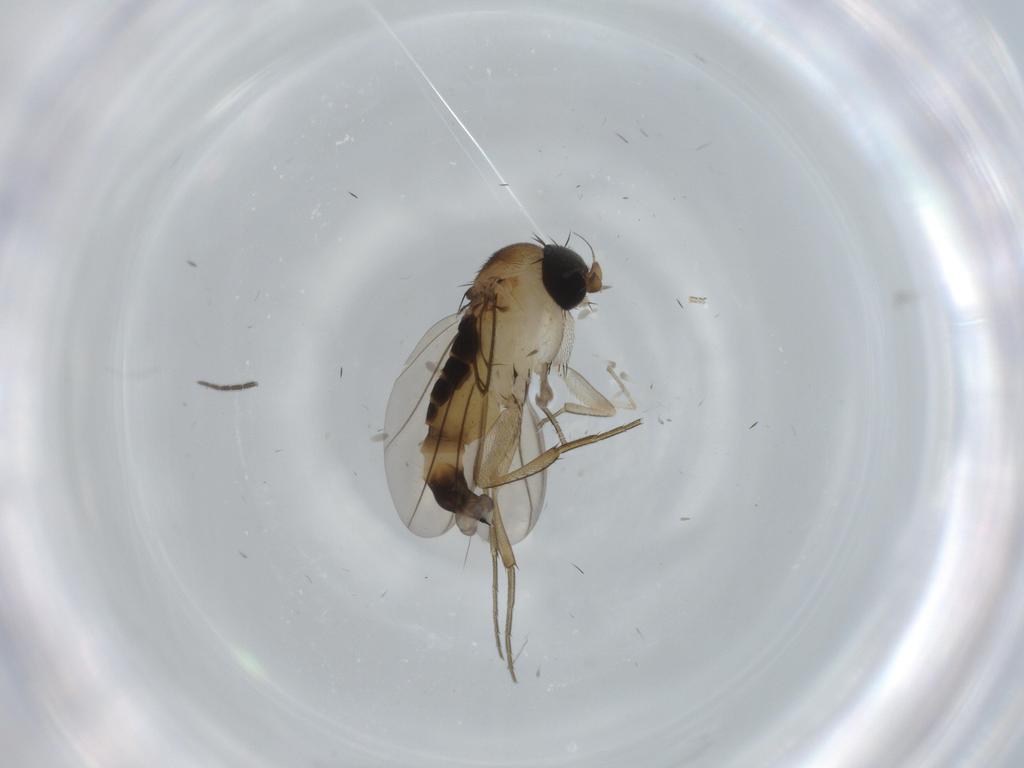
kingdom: Animalia
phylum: Arthropoda
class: Insecta
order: Diptera
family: Phoridae
